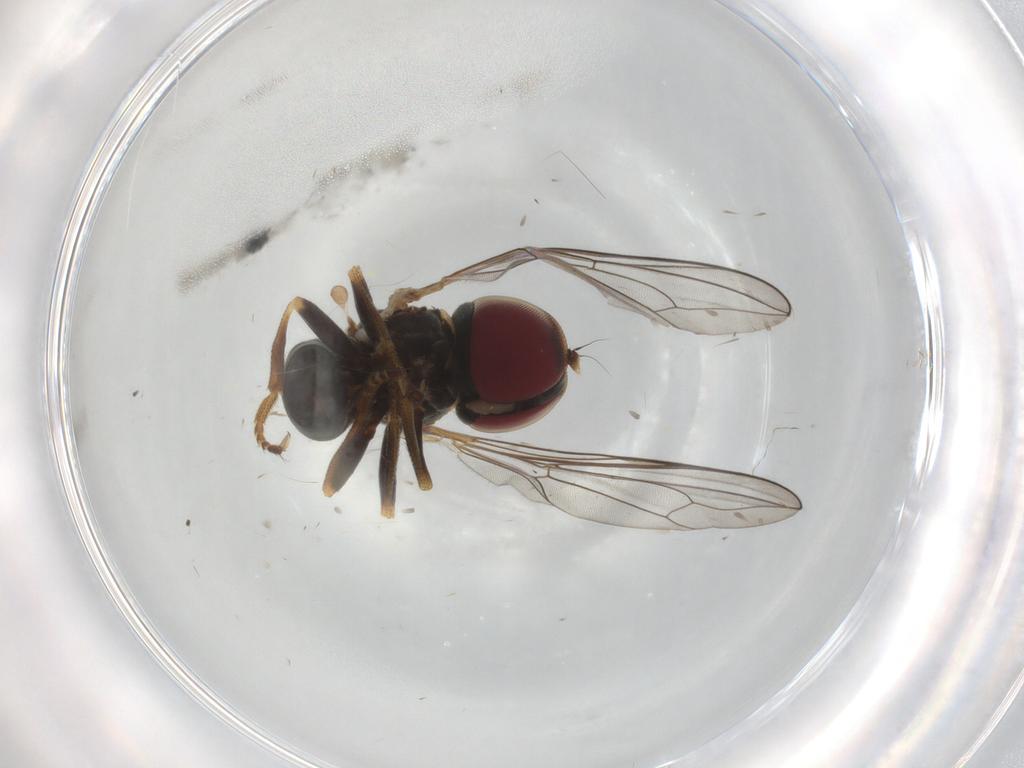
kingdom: Animalia
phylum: Arthropoda
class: Insecta
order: Diptera
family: Pipunculidae
